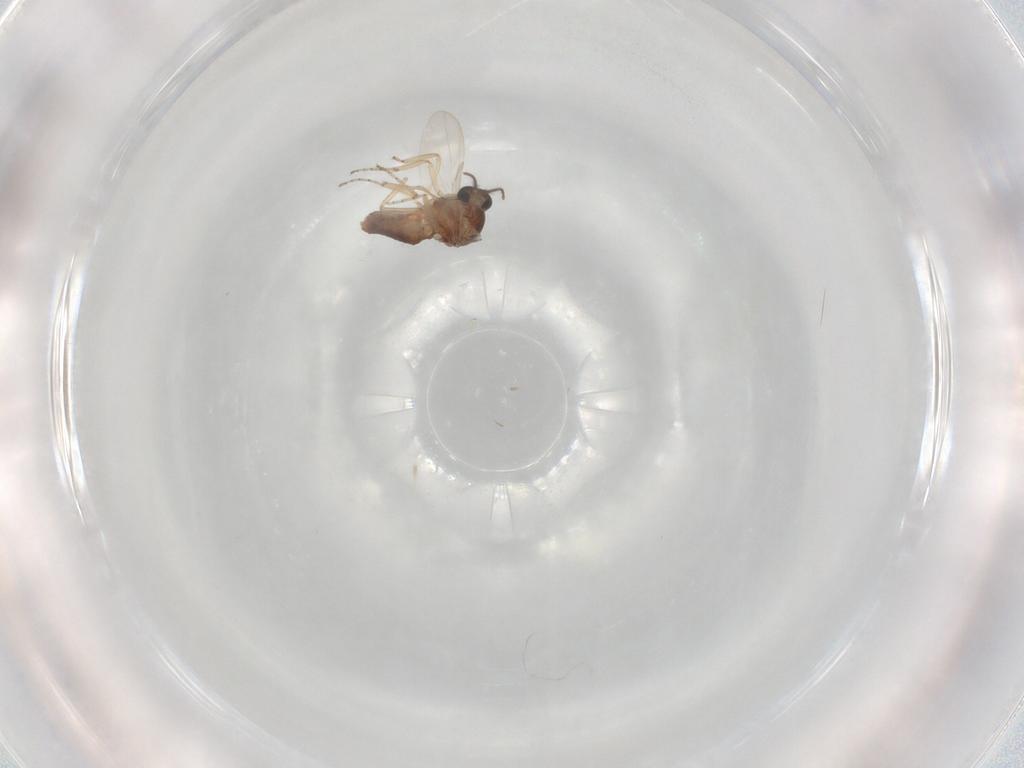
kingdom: Animalia
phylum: Arthropoda
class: Insecta
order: Diptera
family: Ceratopogonidae
